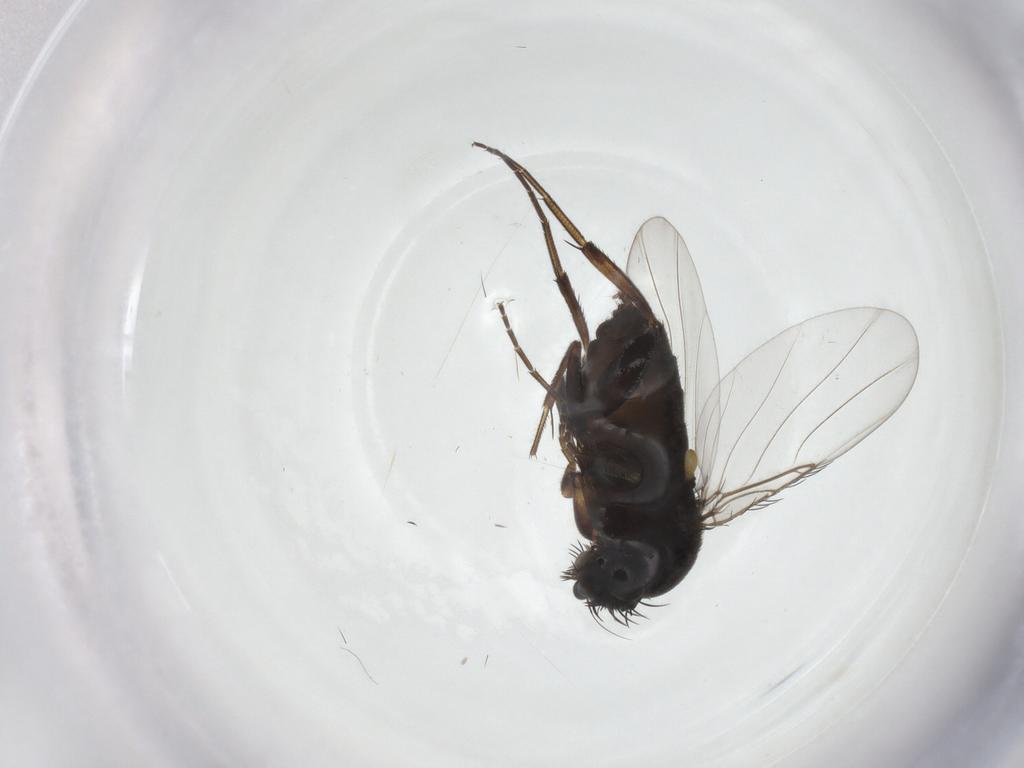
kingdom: Animalia
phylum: Arthropoda
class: Insecta
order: Diptera
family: Phoridae
